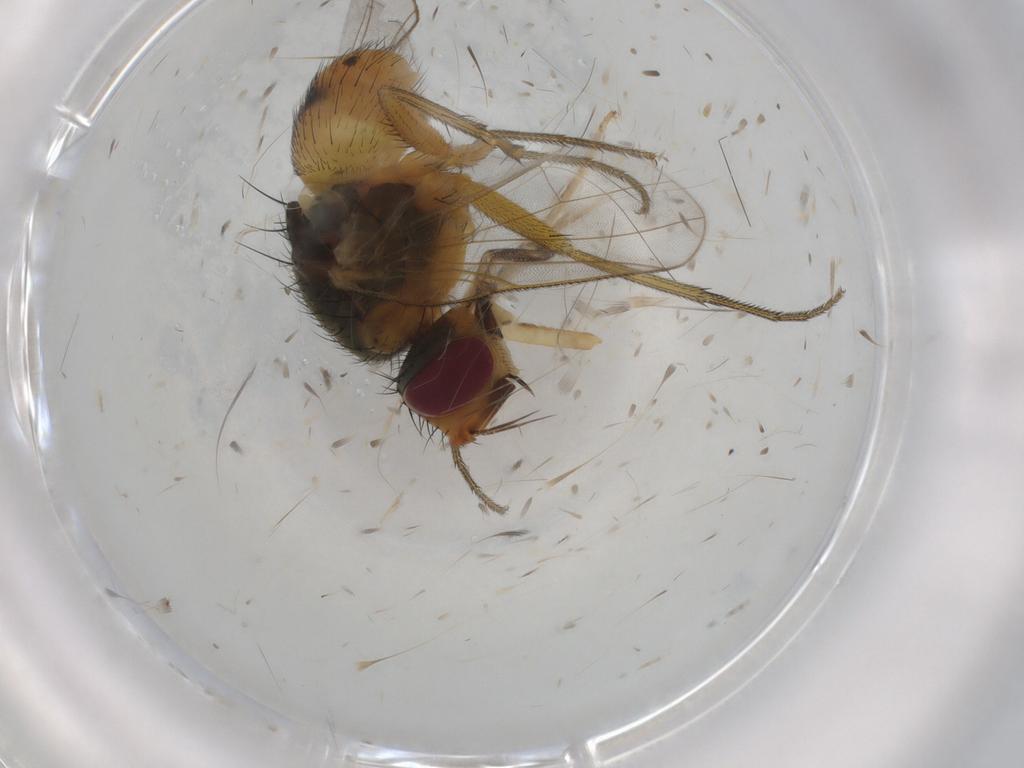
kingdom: Animalia
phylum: Arthropoda
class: Insecta
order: Diptera
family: Muscidae
